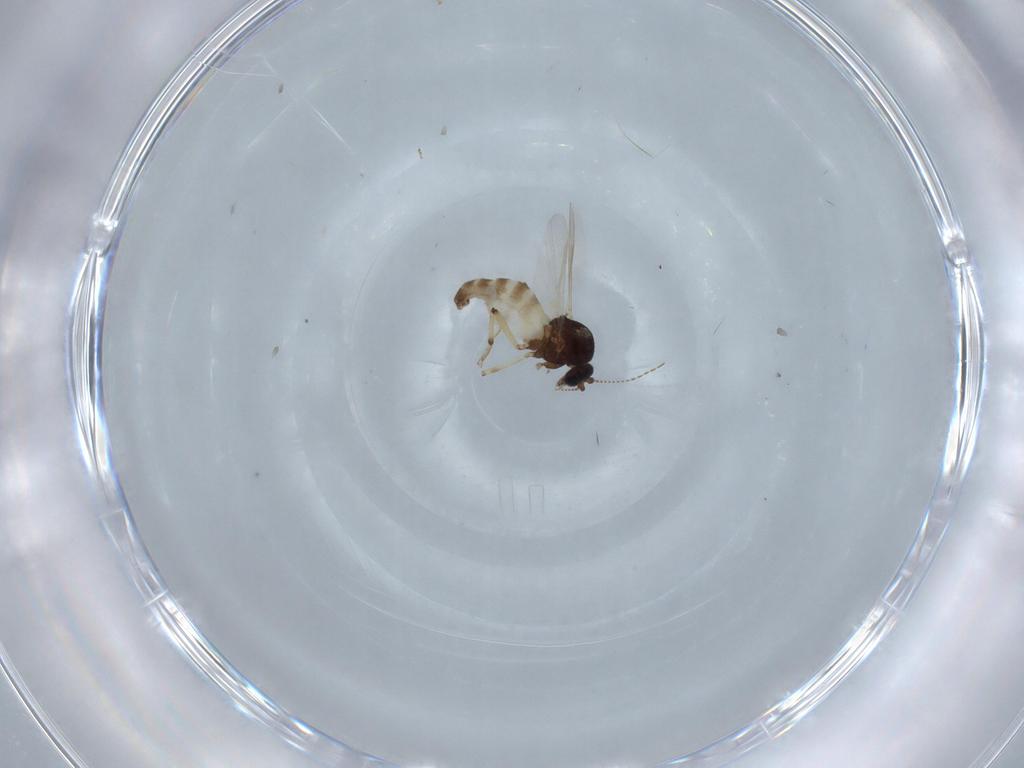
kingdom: Animalia
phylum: Arthropoda
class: Insecta
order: Diptera
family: Ceratopogonidae
